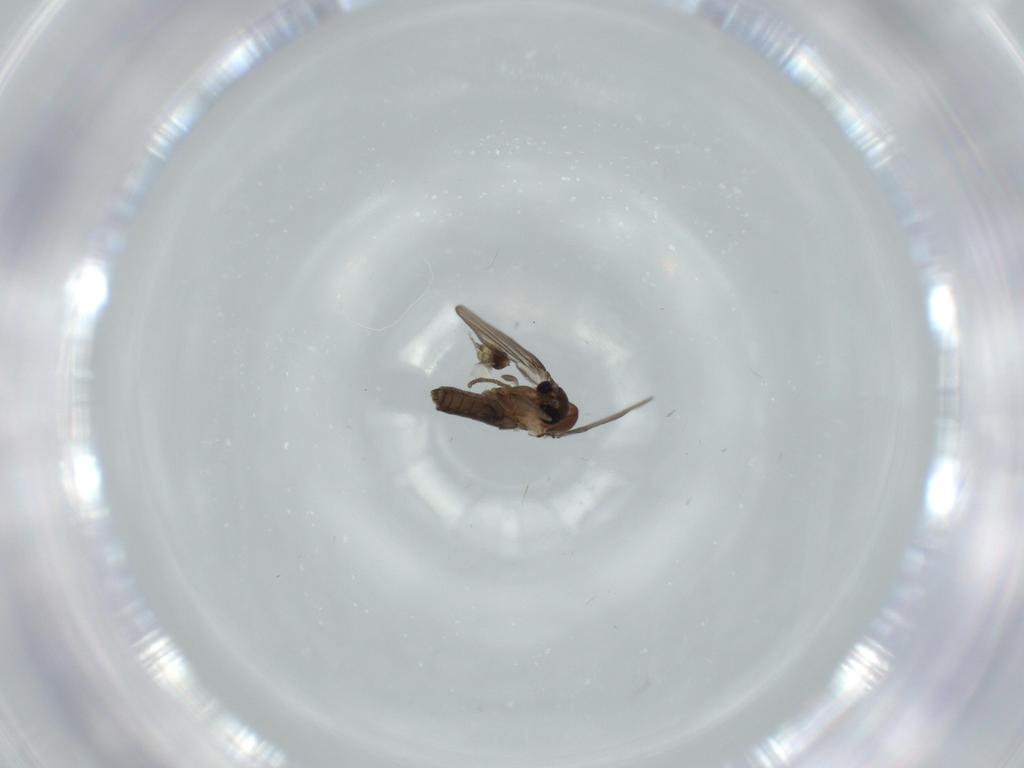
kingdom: Animalia
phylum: Arthropoda
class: Insecta
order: Diptera
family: Psychodidae
